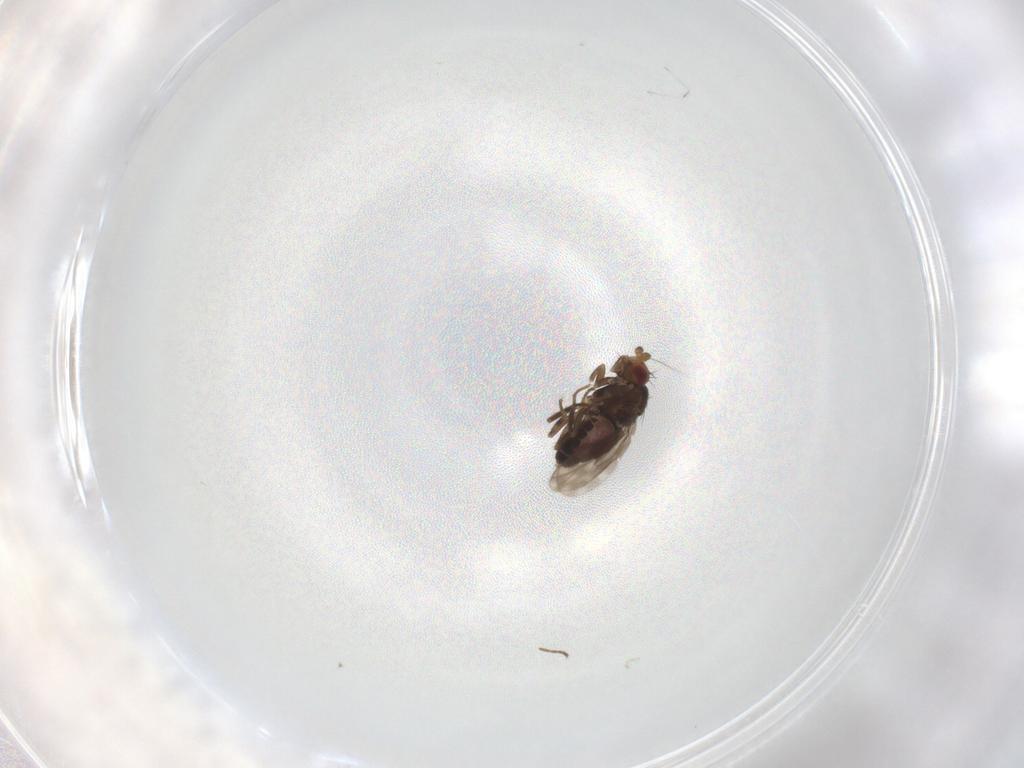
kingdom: Animalia
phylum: Arthropoda
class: Insecta
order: Diptera
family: Sphaeroceridae
